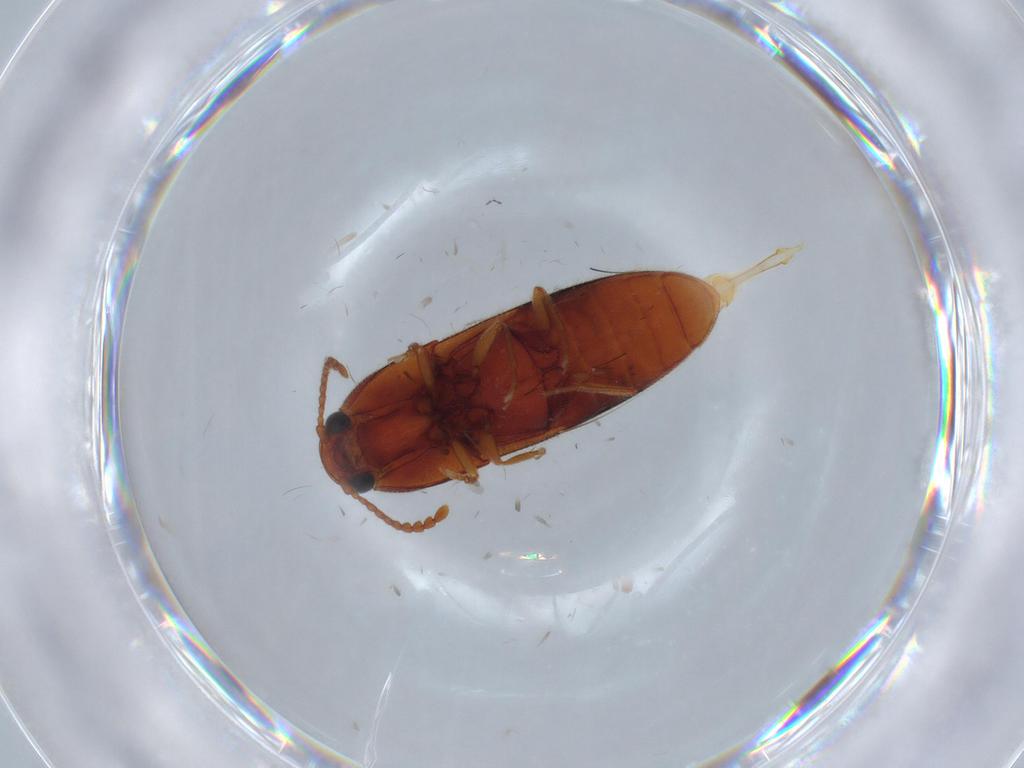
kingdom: Animalia
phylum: Arthropoda
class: Insecta
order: Coleoptera
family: Elateridae
